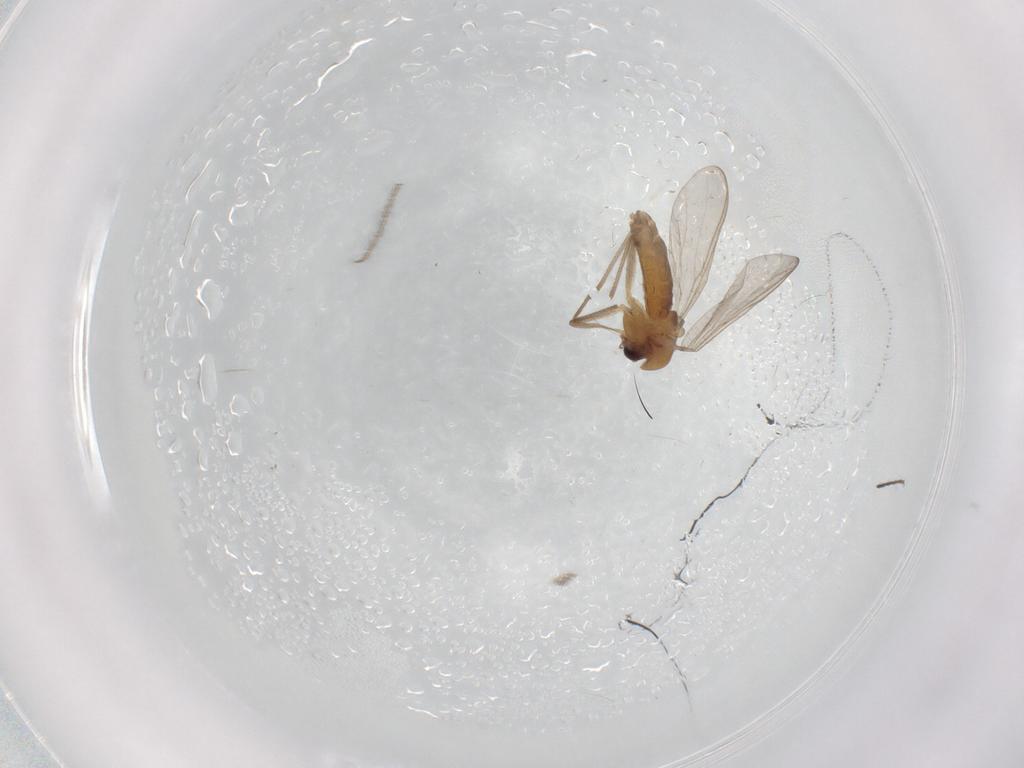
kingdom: Animalia
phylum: Arthropoda
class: Insecta
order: Diptera
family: Chironomidae
